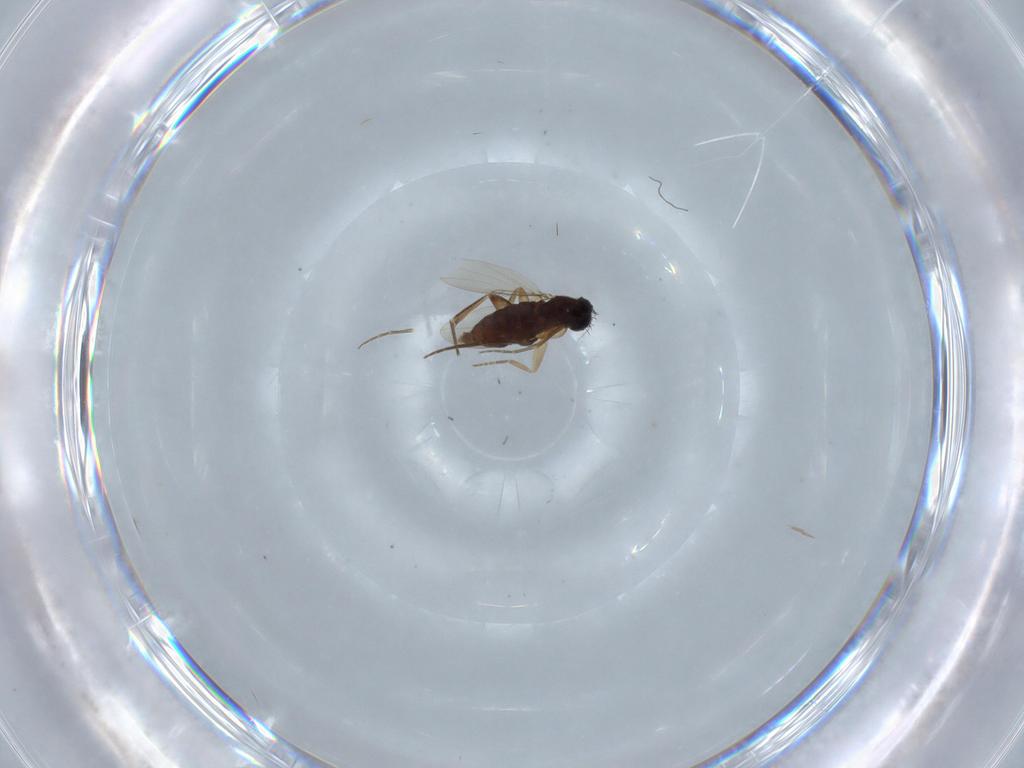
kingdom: Animalia
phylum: Arthropoda
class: Insecta
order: Diptera
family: Phoridae
